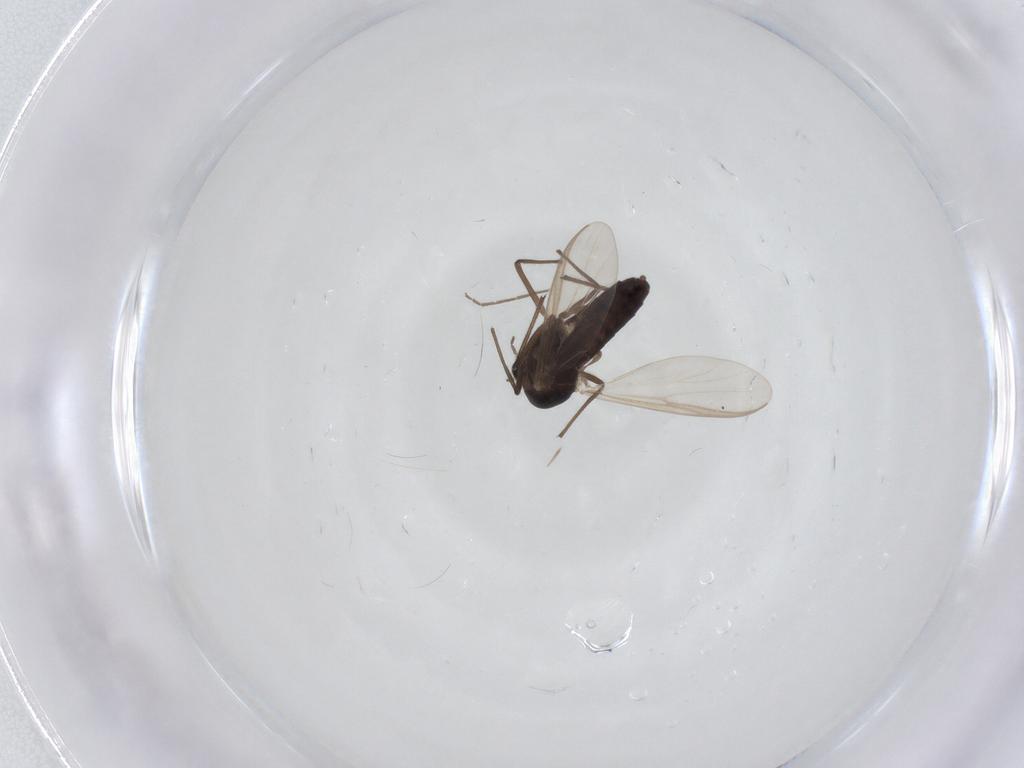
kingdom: Animalia
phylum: Arthropoda
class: Insecta
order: Diptera
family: Chironomidae
